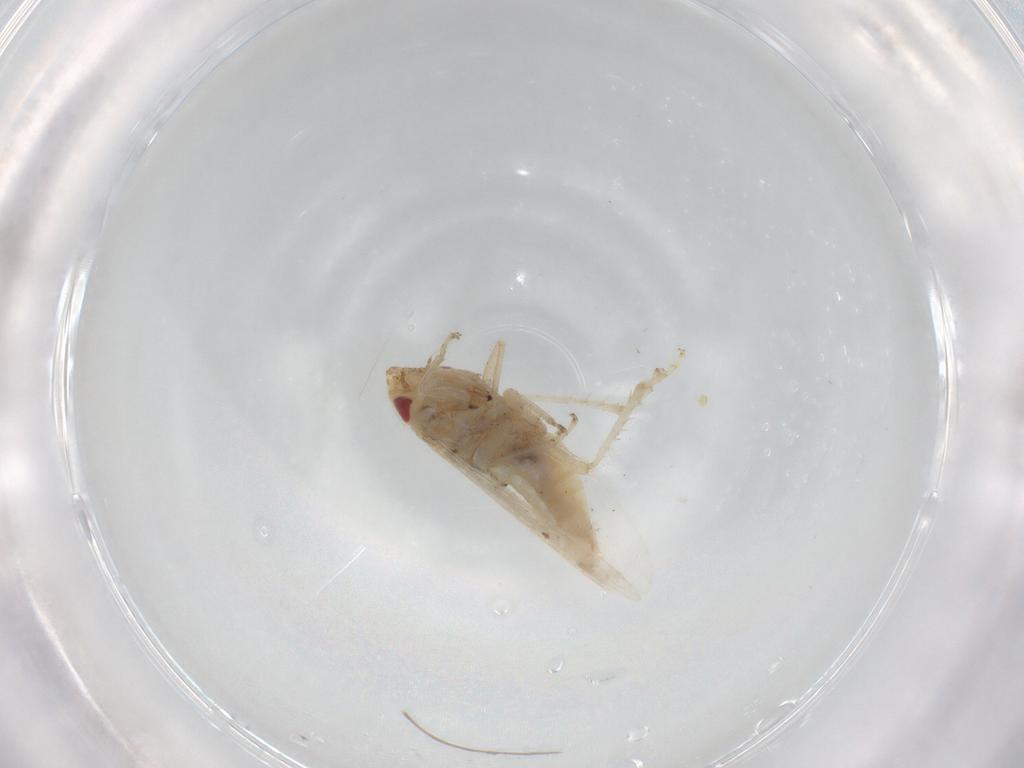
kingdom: Animalia
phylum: Arthropoda
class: Insecta
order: Hemiptera
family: Cicadellidae
